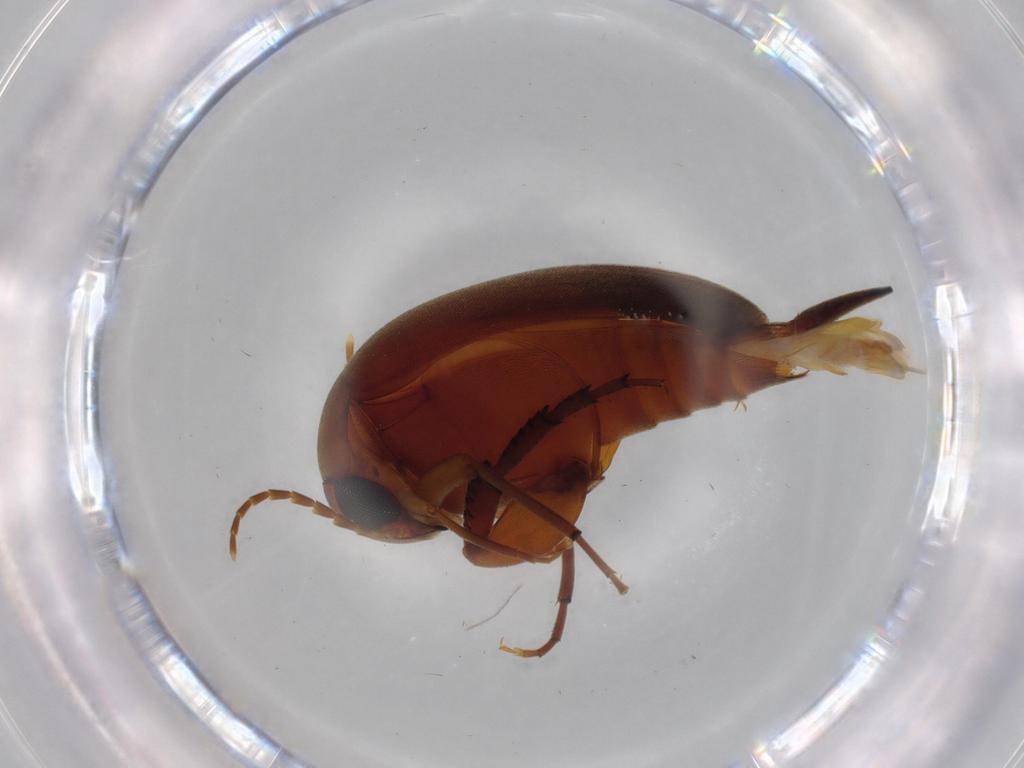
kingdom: Animalia
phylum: Arthropoda
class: Insecta
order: Coleoptera
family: Mordellidae
